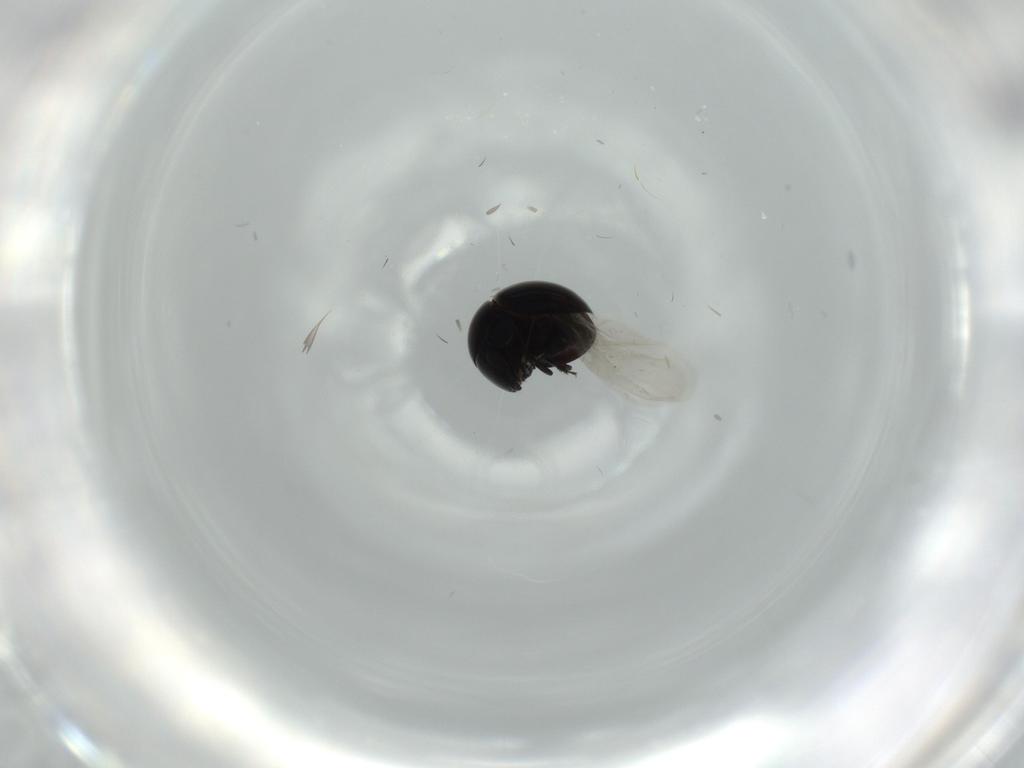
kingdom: Animalia
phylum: Arthropoda
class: Insecta
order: Coleoptera
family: Cybocephalidae
